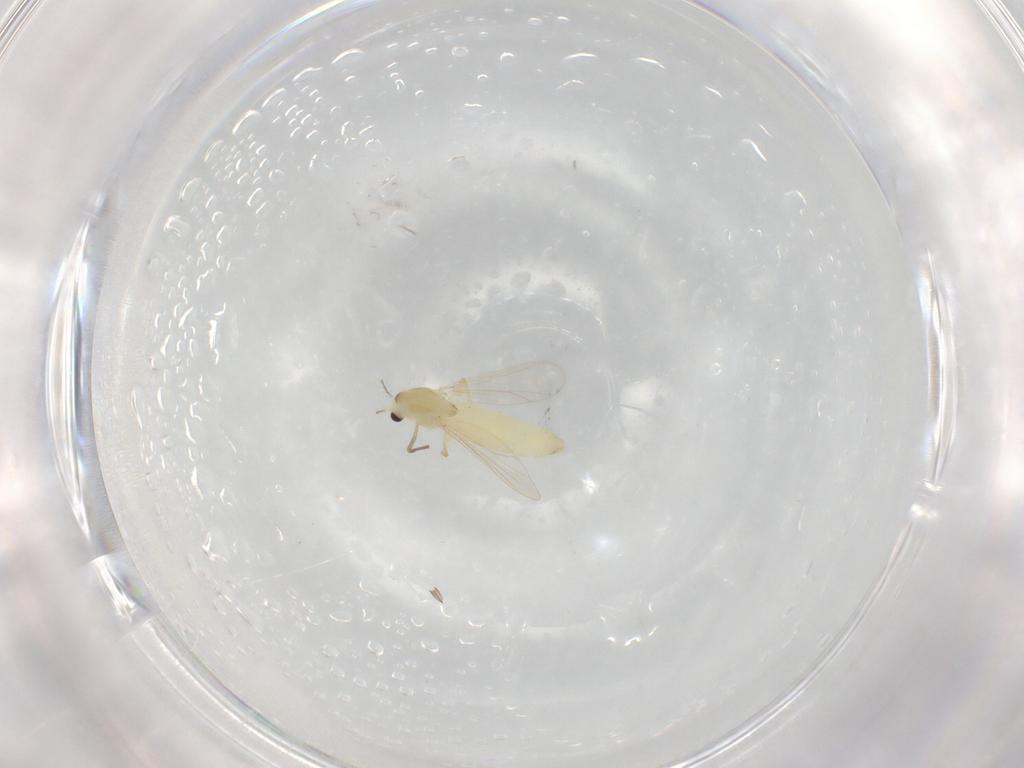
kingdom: Animalia
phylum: Arthropoda
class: Insecta
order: Diptera
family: Chironomidae
